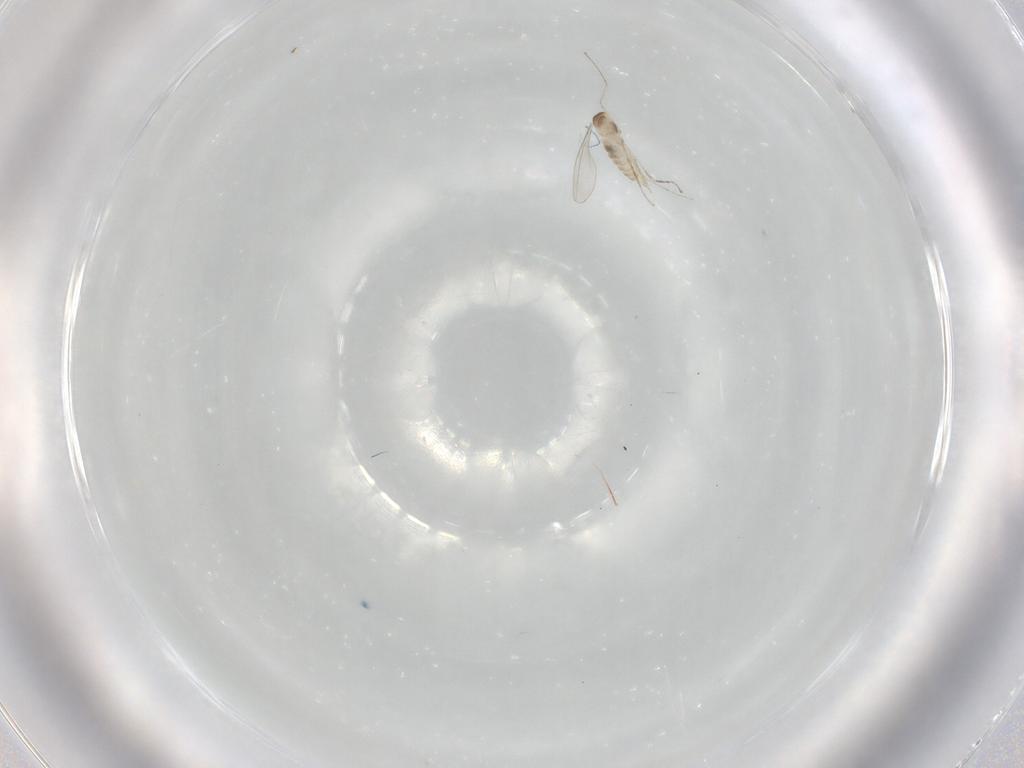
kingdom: Animalia
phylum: Arthropoda
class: Insecta
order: Diptera
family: Cecidomyiidae
